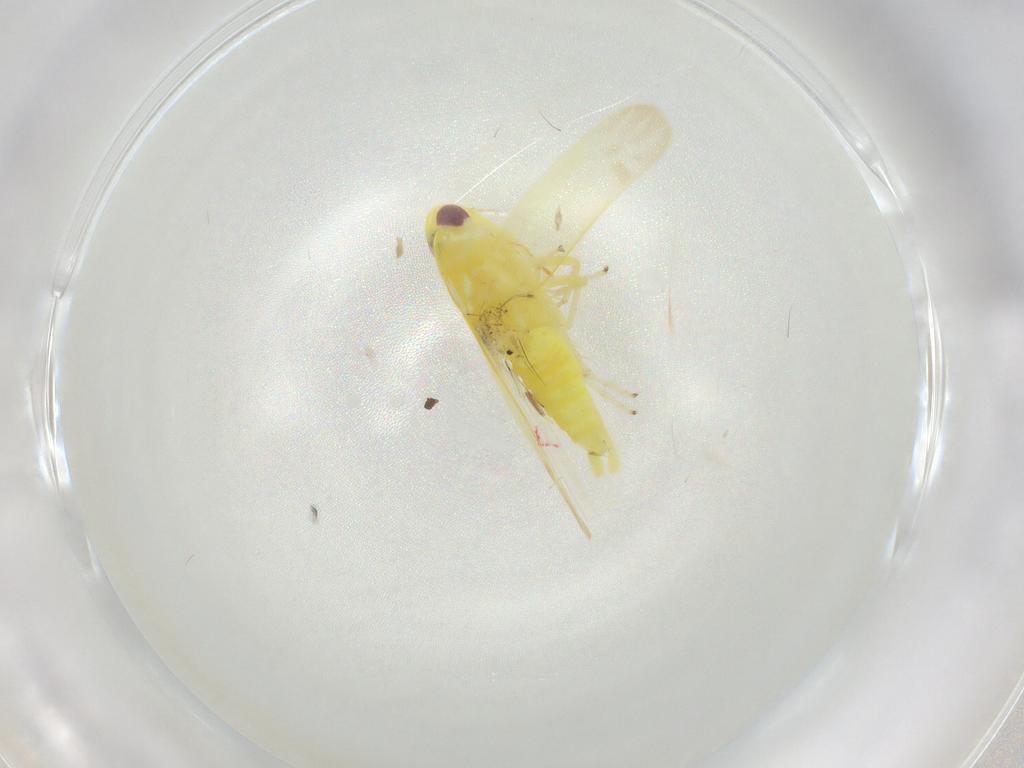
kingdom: Animalia
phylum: Arthropoda
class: Insecta
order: Hemiptera
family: Cicadellidae
